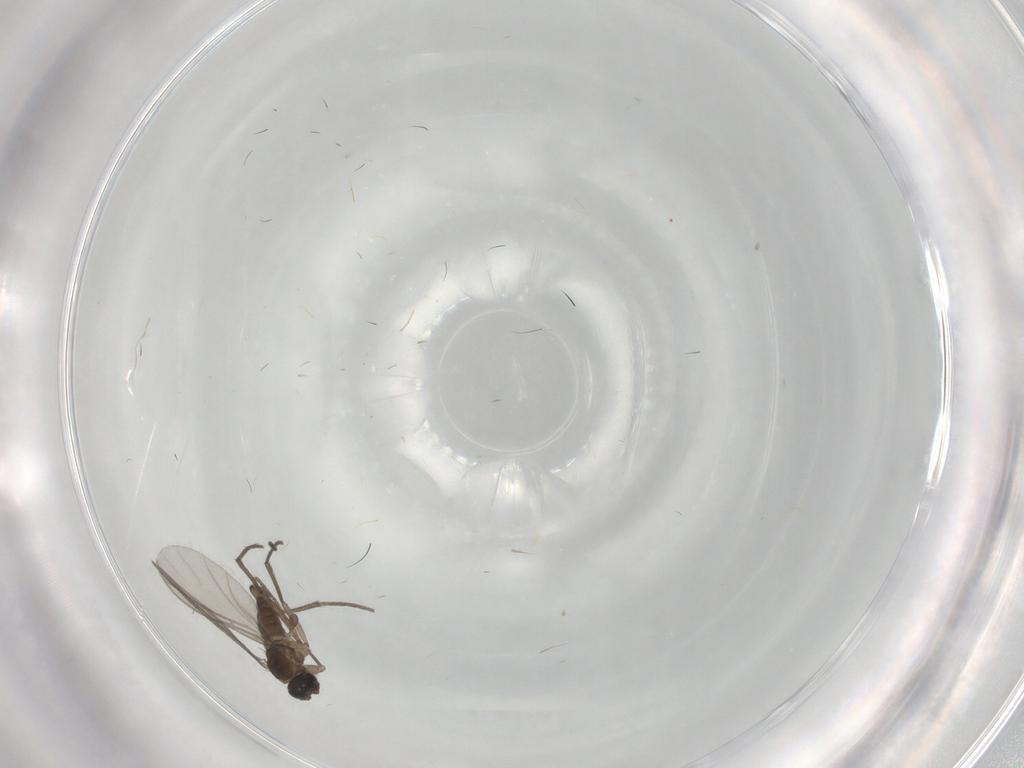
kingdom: Animalia
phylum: Arthropoda
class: Insecta
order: Diptera
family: Sciaridae
